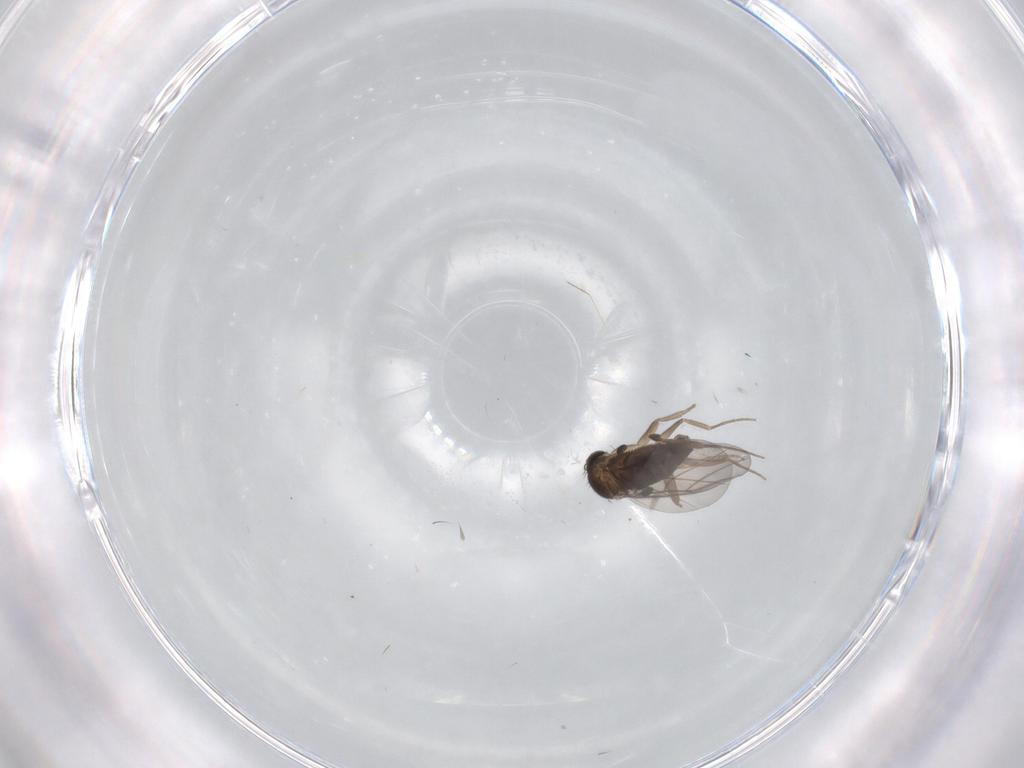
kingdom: Animalia
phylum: Arthropoda
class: Insecta
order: Diptera
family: Phoridae
